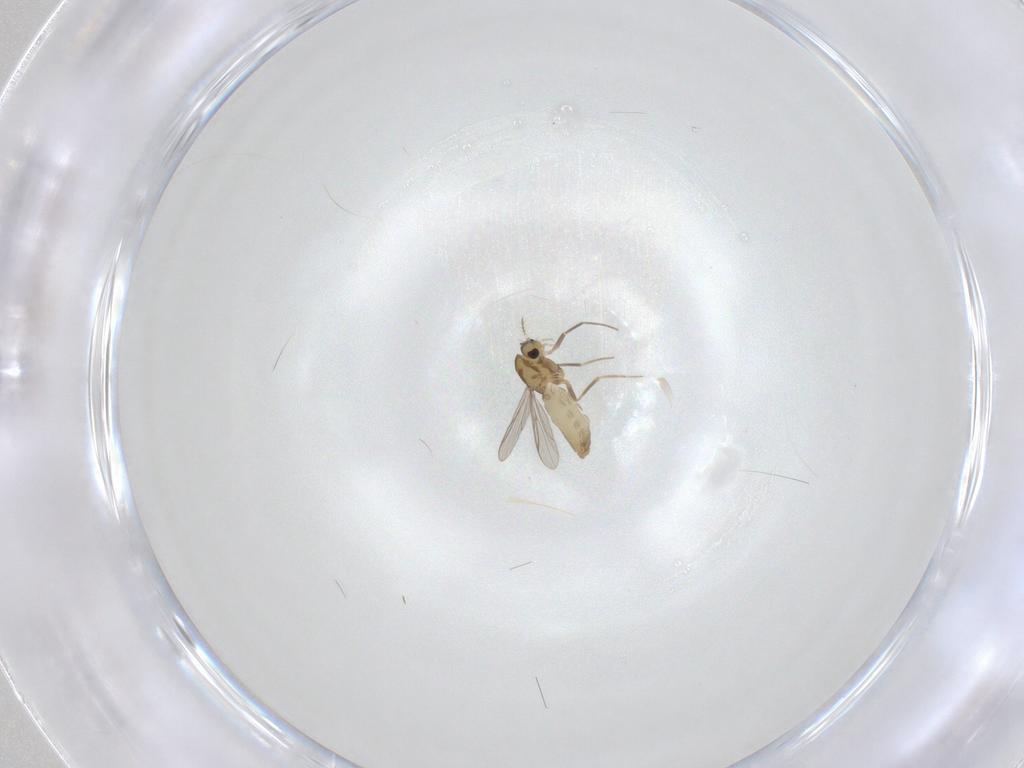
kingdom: Animalia
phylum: Arthropoda
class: Insecta
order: Diptera
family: Chironomidae
